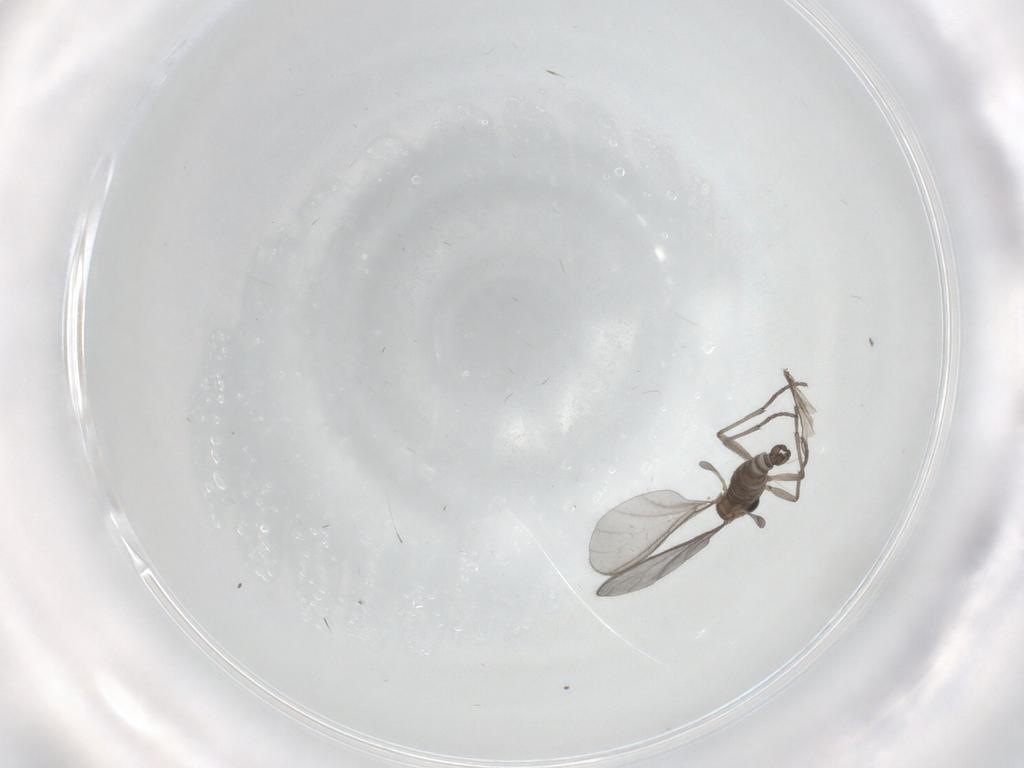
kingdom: Animalia
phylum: Arthropoda
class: Insecta
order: Diptera
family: Sciaridae
